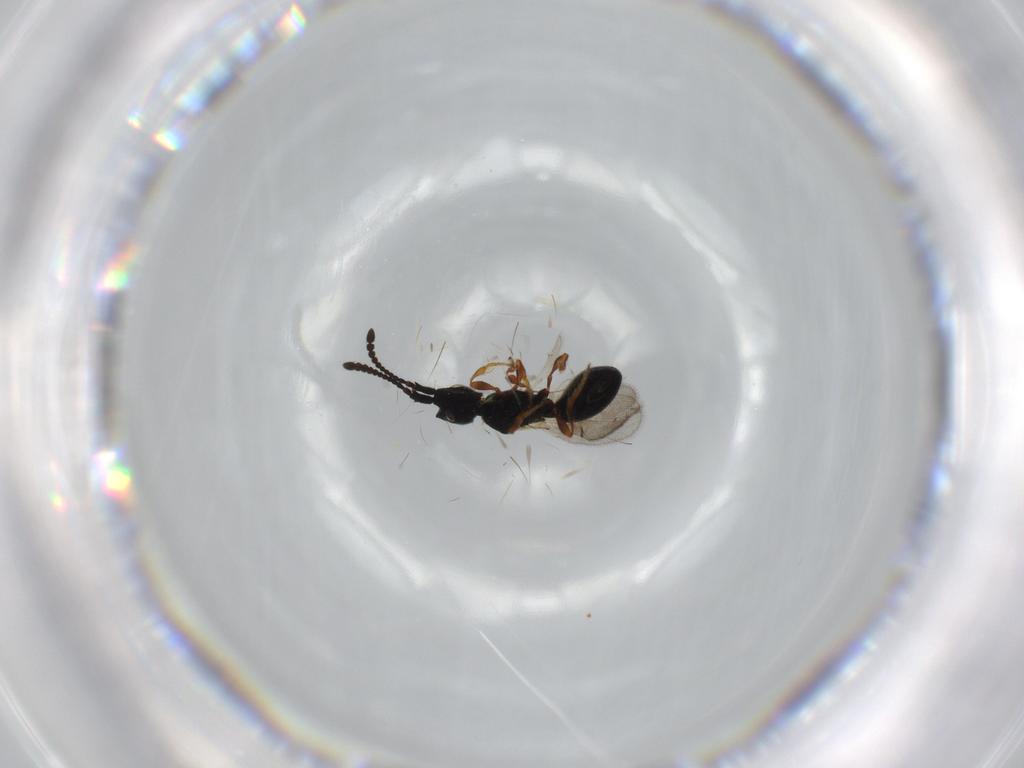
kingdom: Animalia
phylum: Arthropoda
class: Insecta
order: Hymenoptera
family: Diapriidae
